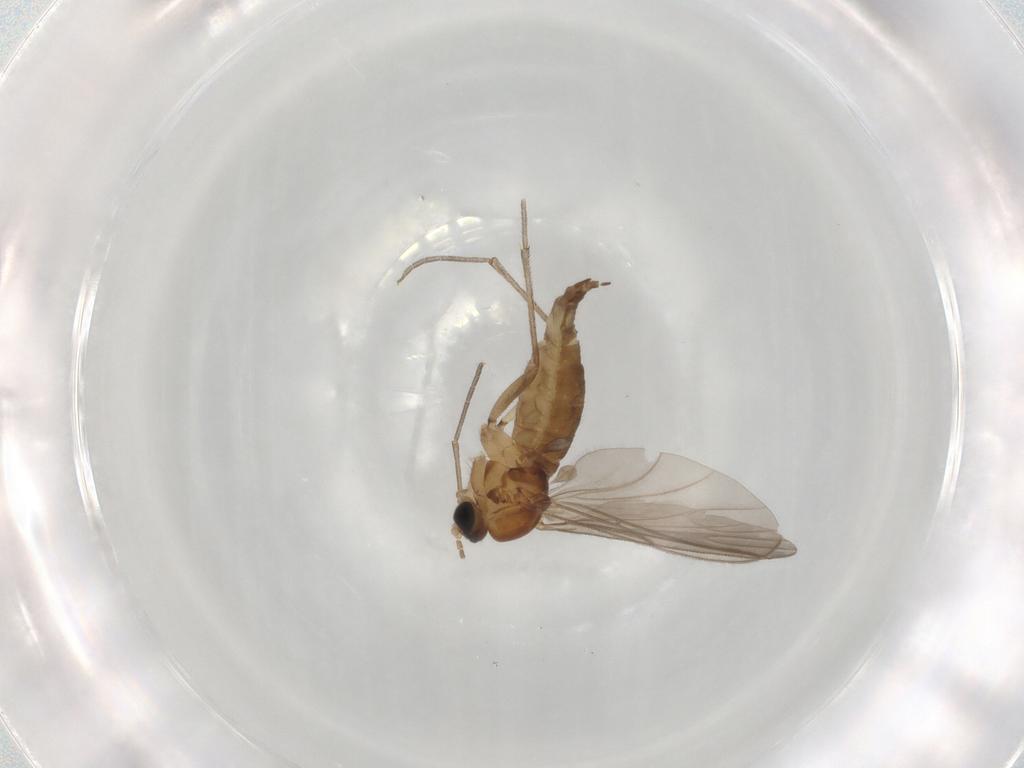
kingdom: Animalia
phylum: Arthropoda
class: Insecta
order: Diptera
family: Sciaridae
